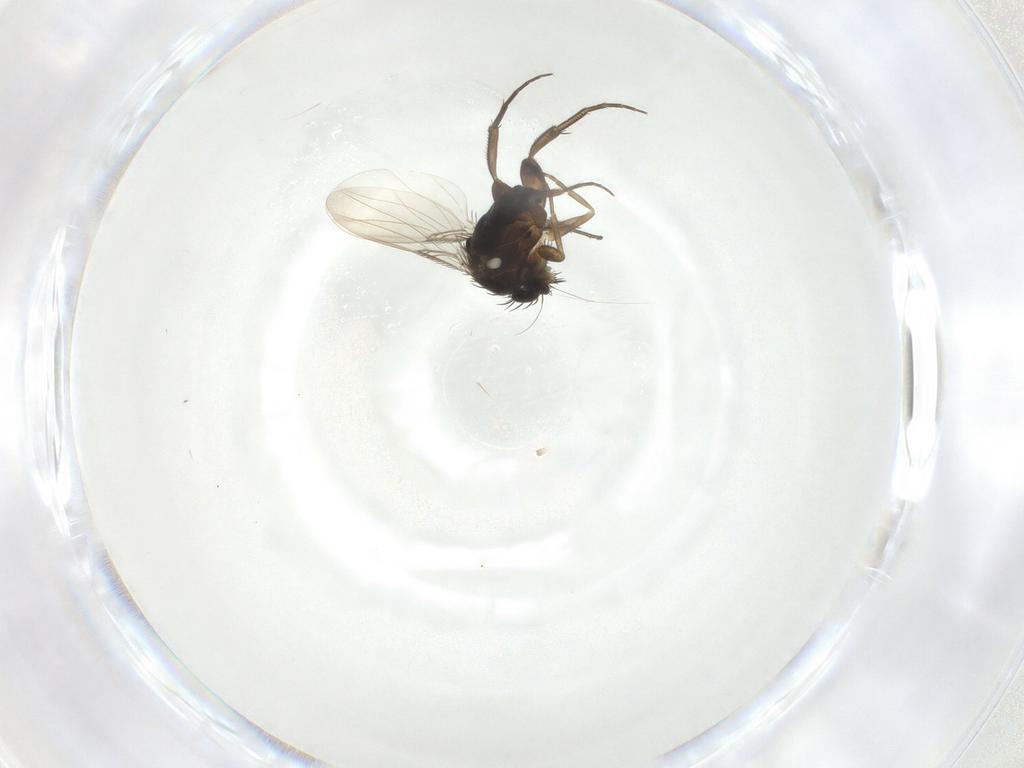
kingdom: Animalia
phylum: Arthropoda
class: Insecta
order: Diptera
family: Phoridae
